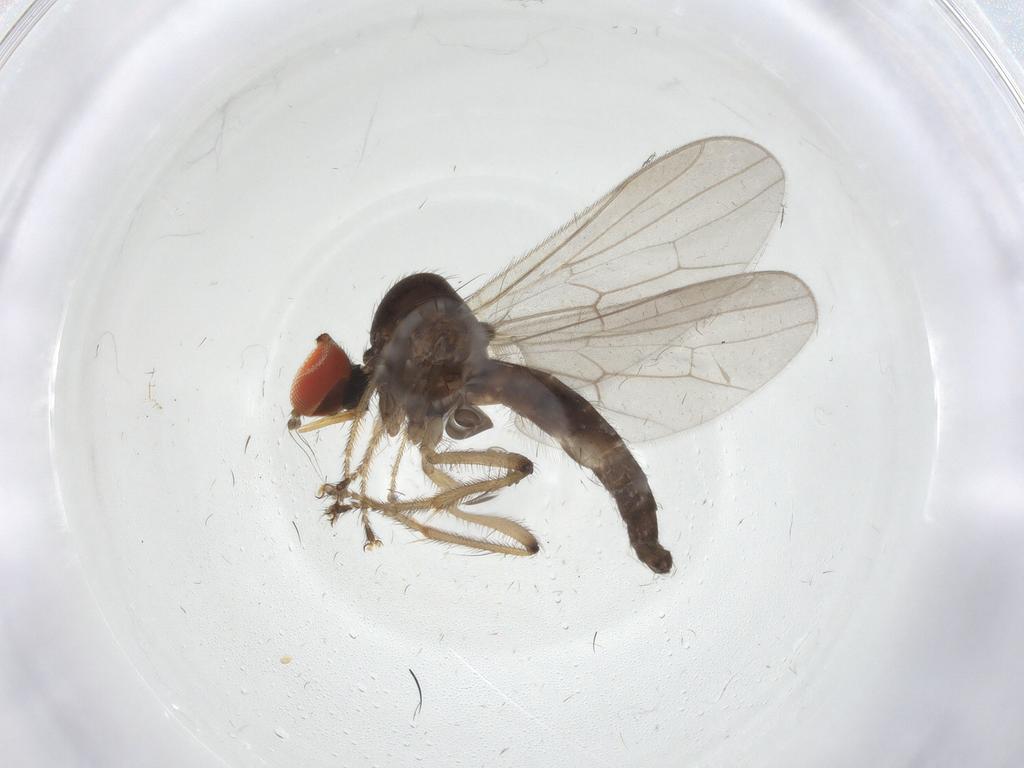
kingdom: Animalia
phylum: Arthropoda
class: Insecta
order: Diptera
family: Hybotidae
